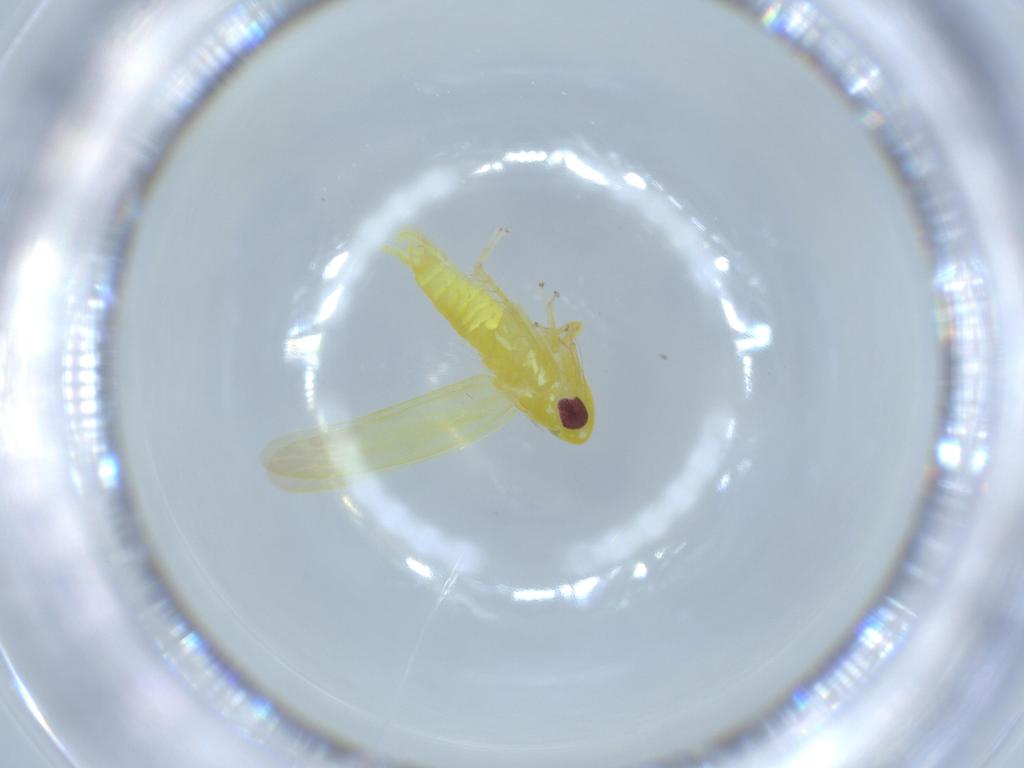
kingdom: Animalia
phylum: Arthropoda
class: Insecta
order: Hemiptera
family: Cicadellidae
